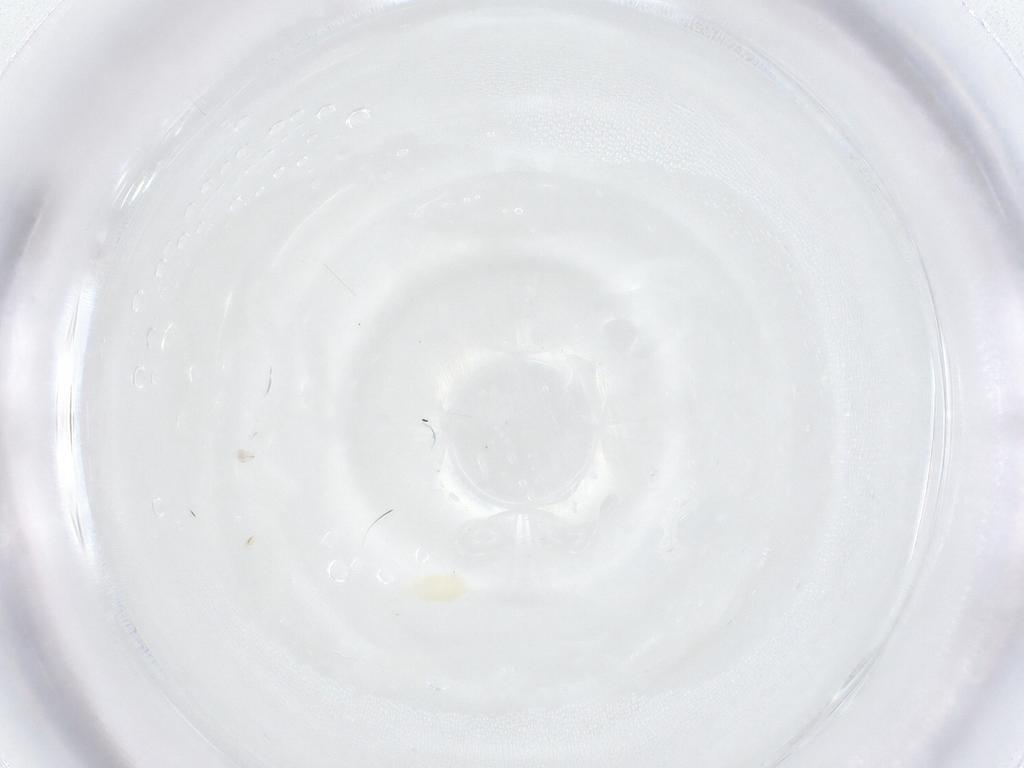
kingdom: Animalia
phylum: Arthropoda
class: Arachnida
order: Trombidiformes
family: Stigmaeidae
